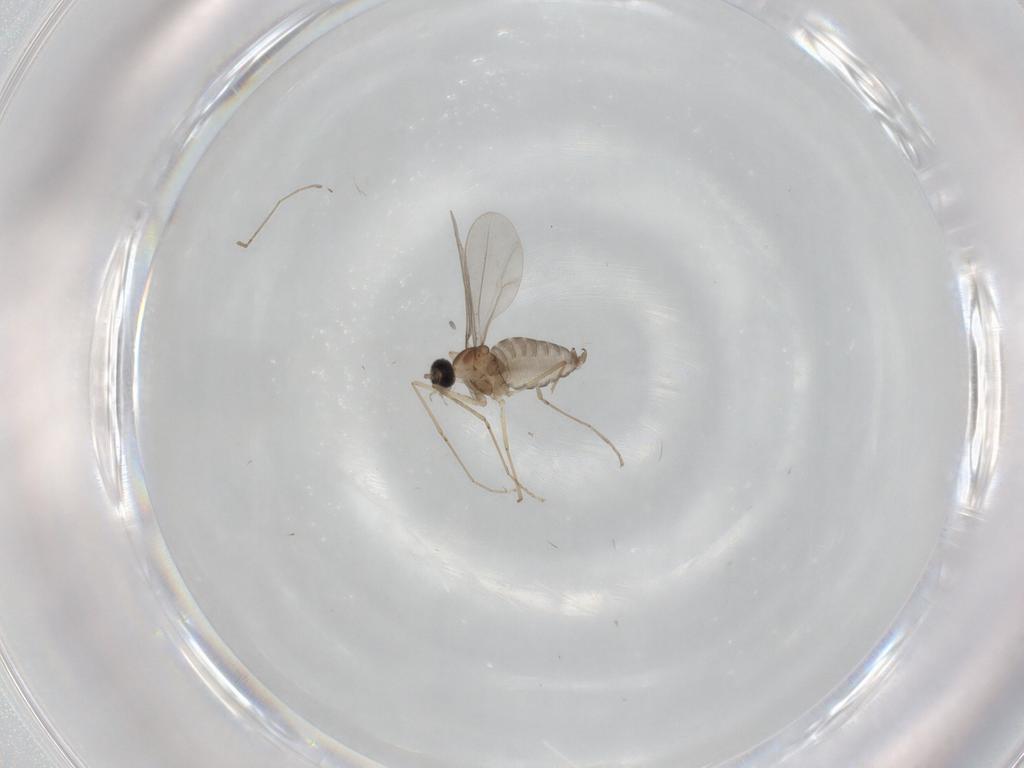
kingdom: Animalia
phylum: Arthropoda
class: Insecta
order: Diptera
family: Cecidomyiidae
